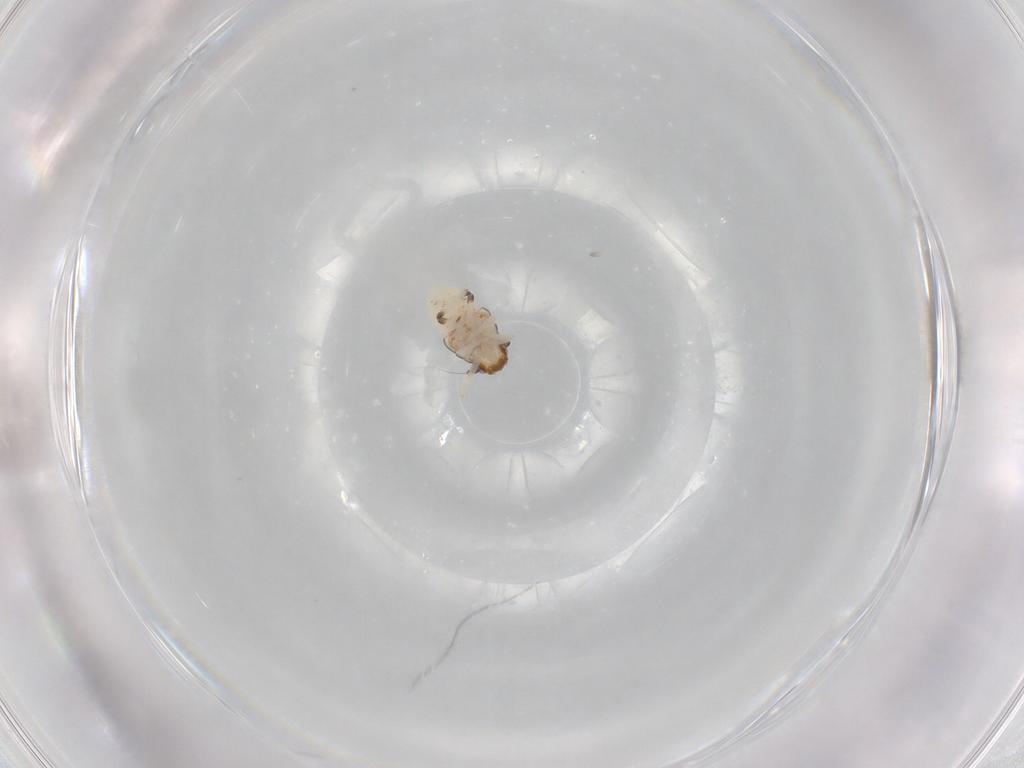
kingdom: Animalia
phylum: Arthropoda
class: Insecta
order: Hemiptera
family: Nogodinidae
